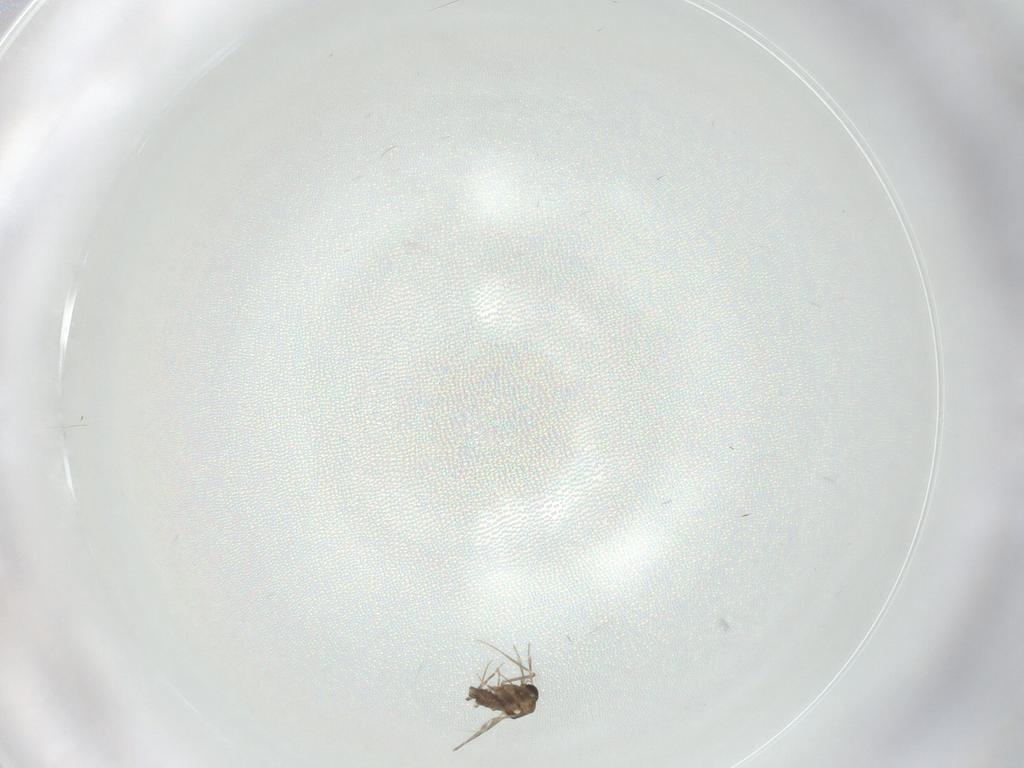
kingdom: Animalia
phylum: Arthropoda
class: Insecta
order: Diptera
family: Cecidomyiidae
